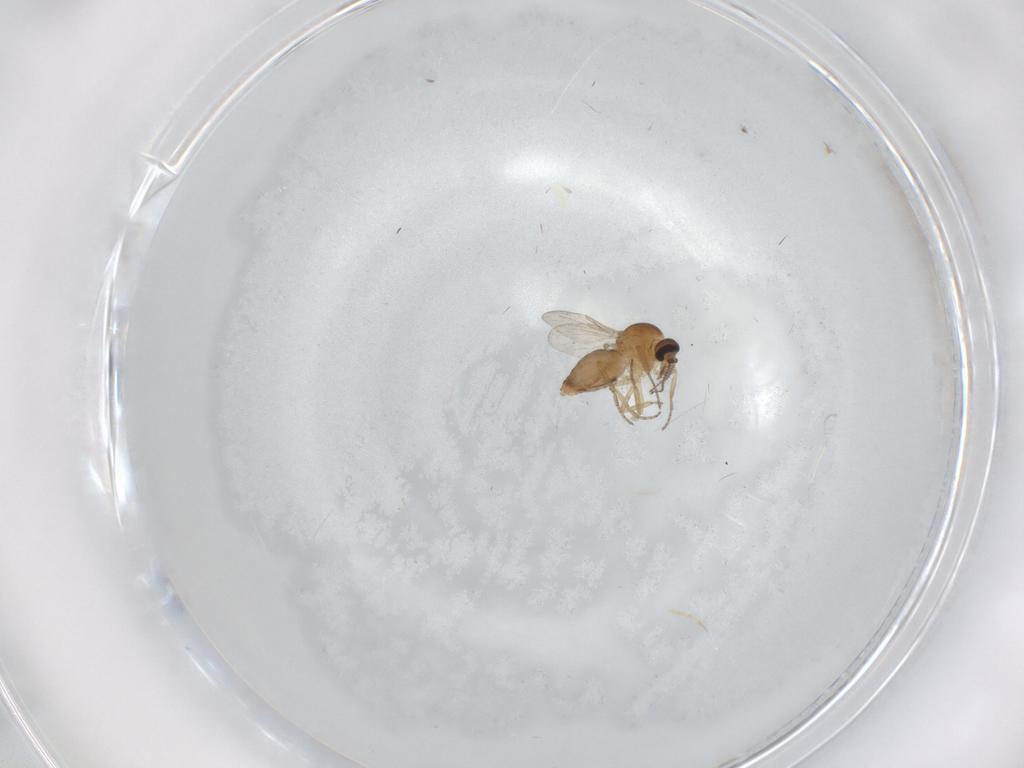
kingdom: Animalia
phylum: Arthropoda
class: Insecta
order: Diptera
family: Ceratopogonidae
